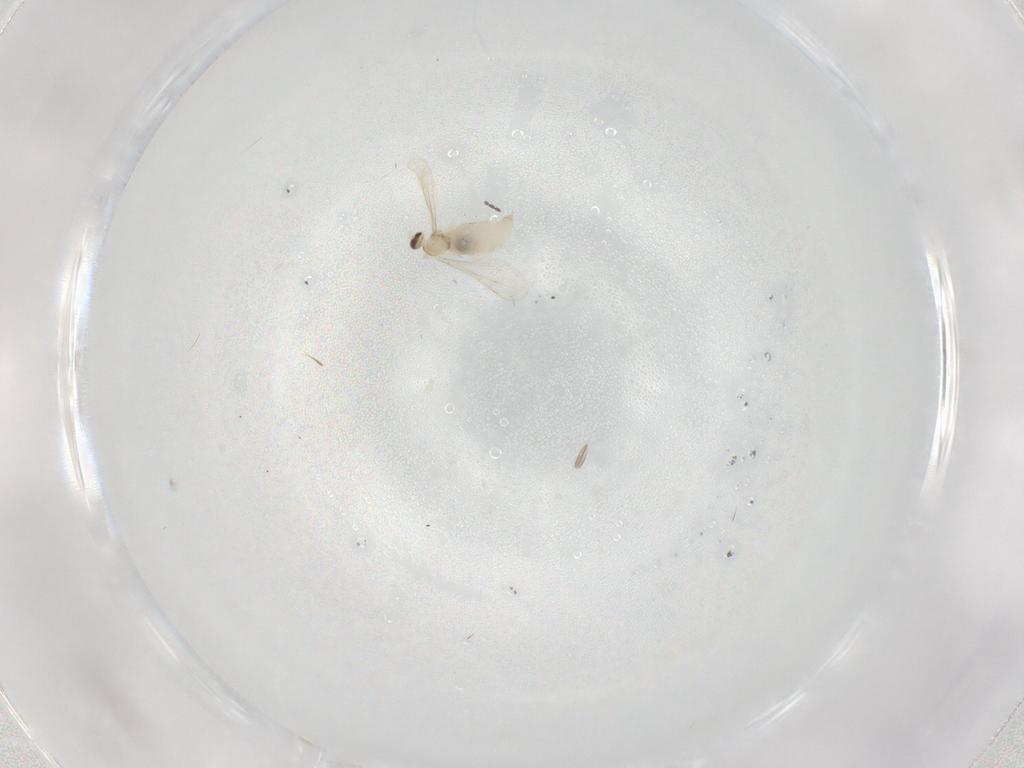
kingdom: Animalia
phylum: Arthropoda
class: Insecta
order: Diptera
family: Cecidomyiidae
